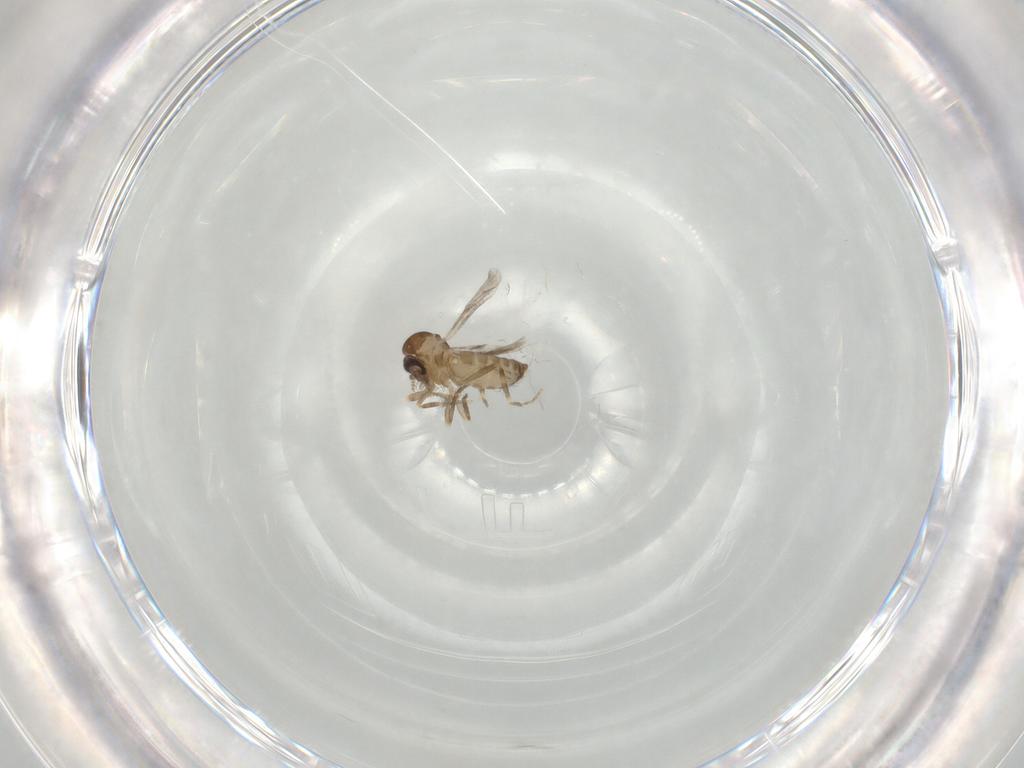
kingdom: Animalia
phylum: Arthropoda
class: Insecta
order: Diptera
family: Ceratopogonidae
